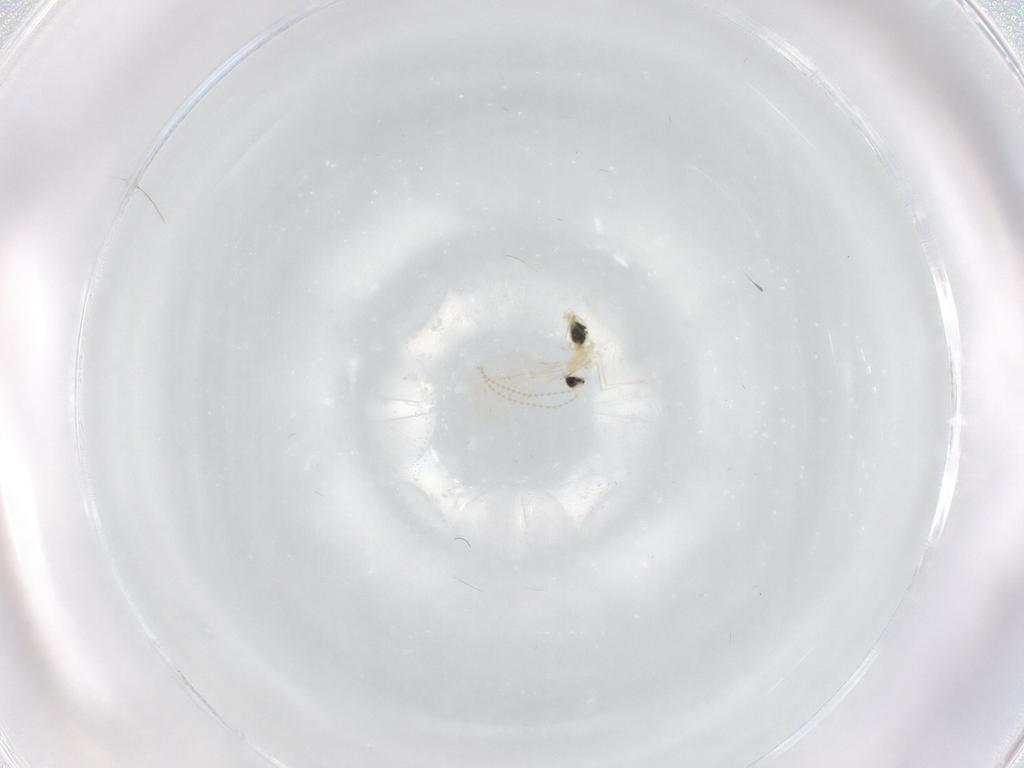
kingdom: Animalia
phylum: Arthropoda
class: Insecta
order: Diptera
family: Cecidomyiidae
